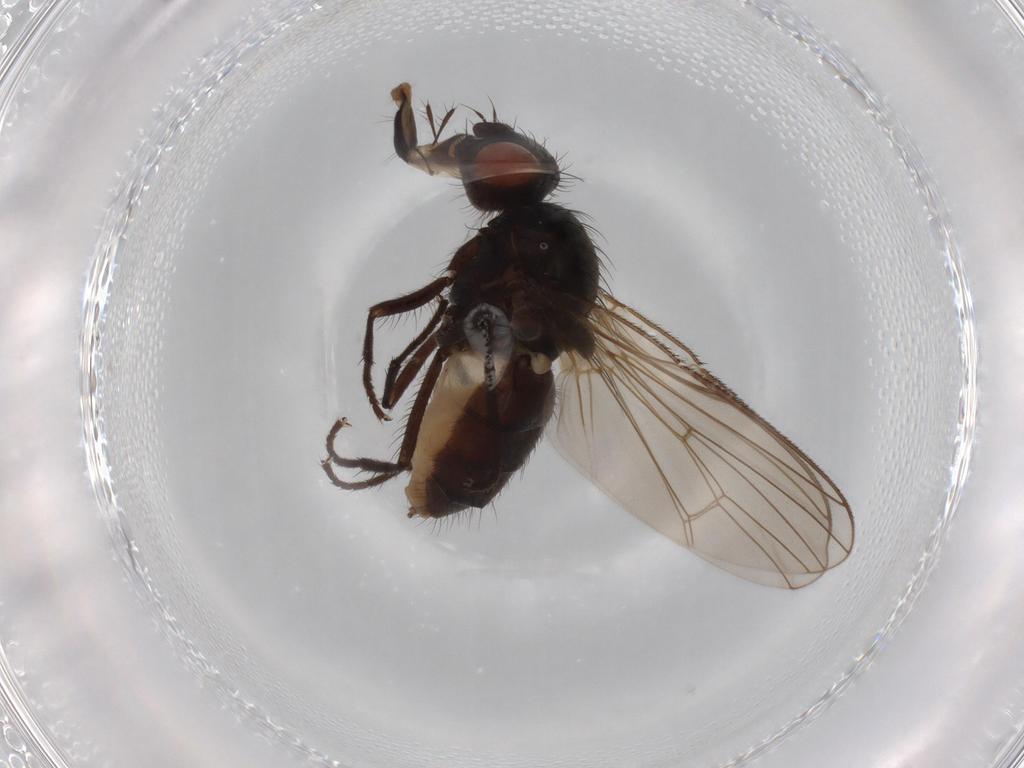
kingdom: Animalia
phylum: Arthropoda
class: Insecta
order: Diptera
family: Anthomyiidae
